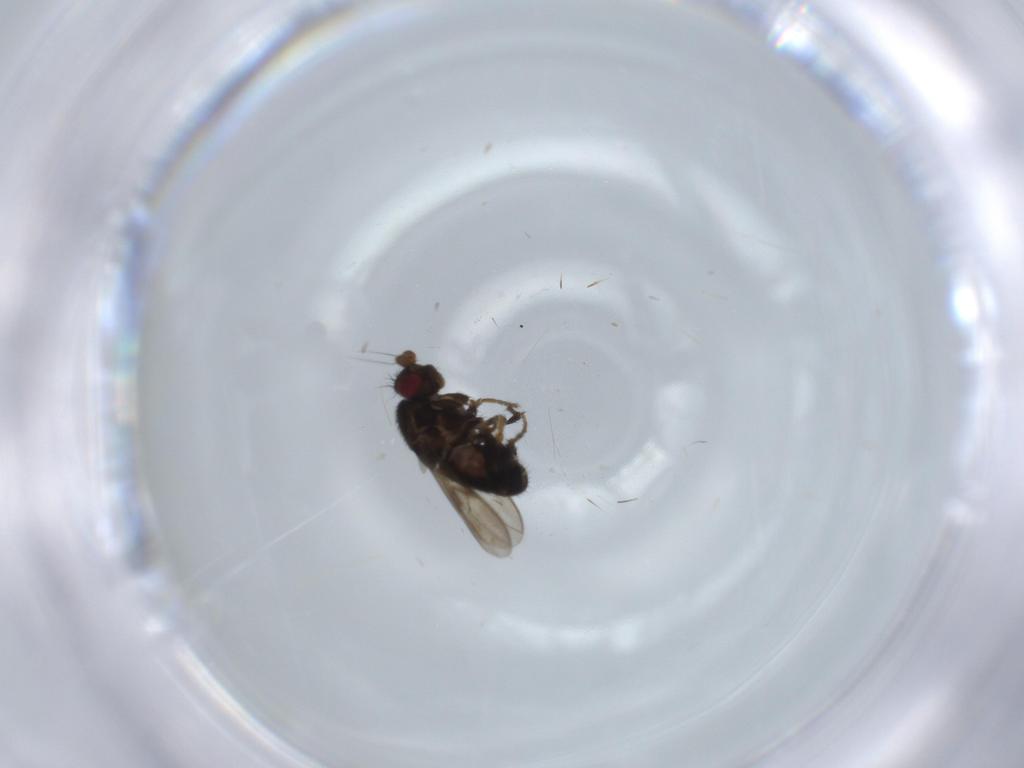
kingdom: Animalia
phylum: Arthropoda
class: Insecta
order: Diptera
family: Sphaeroceridae
